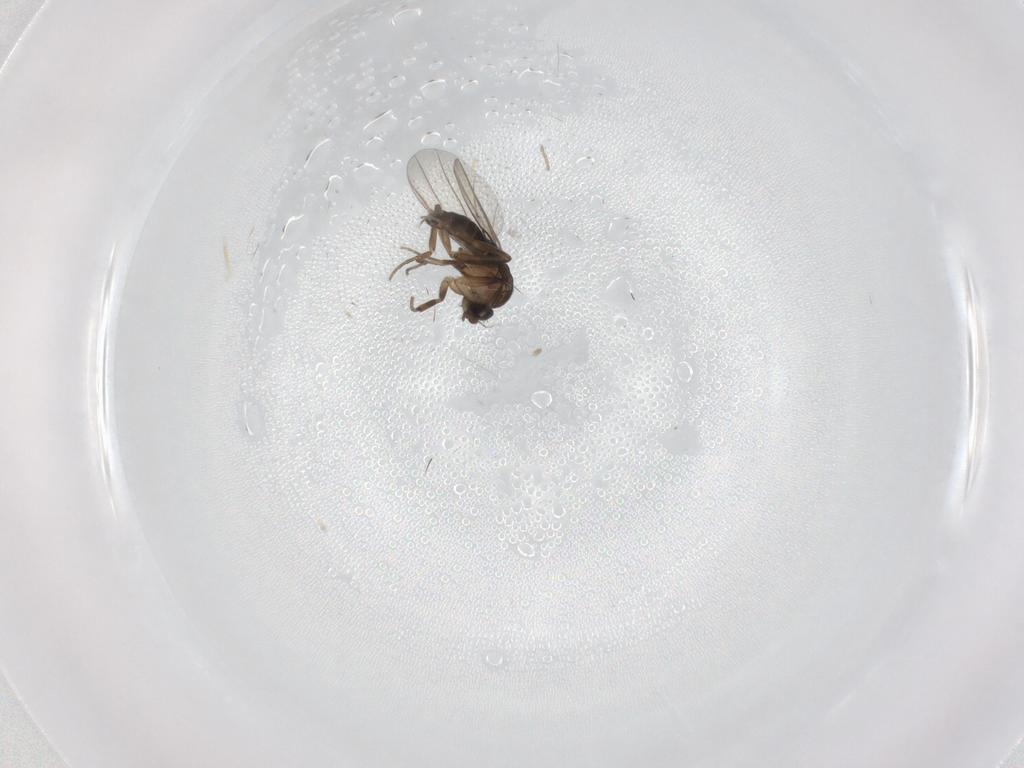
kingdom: Animalia
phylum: Arthropoda
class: Insecta
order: Diptera
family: Phoridae
